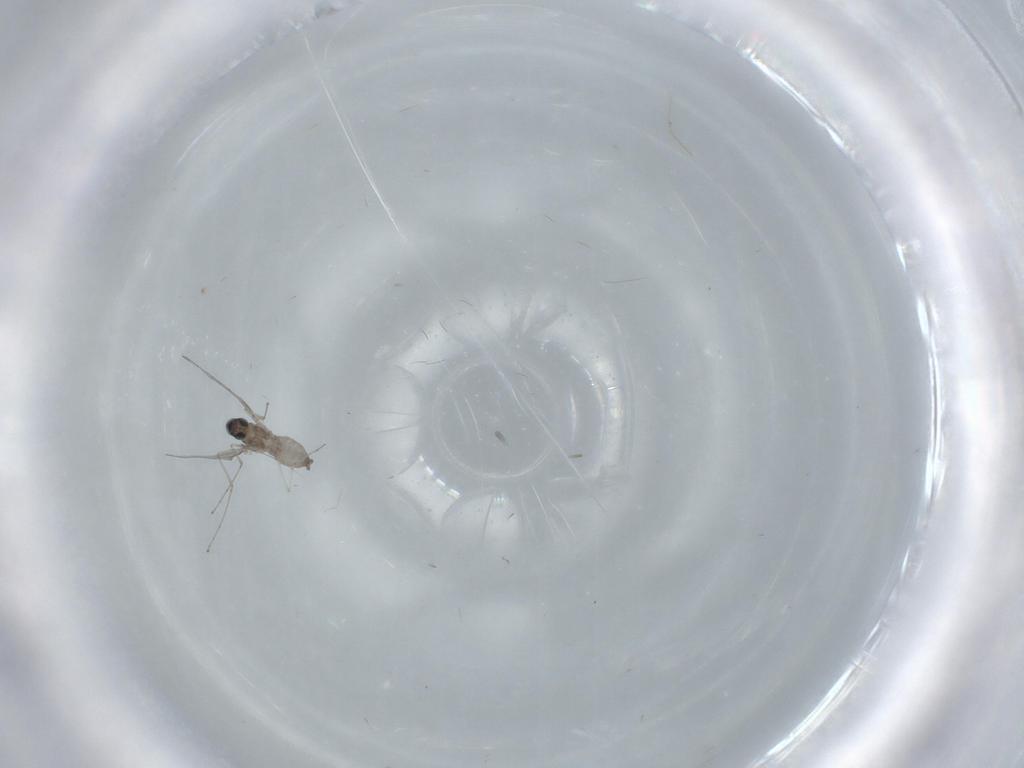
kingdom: Animalia
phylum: Arthropoda
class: Insecta
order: Diptera
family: Cecidomyiidae
